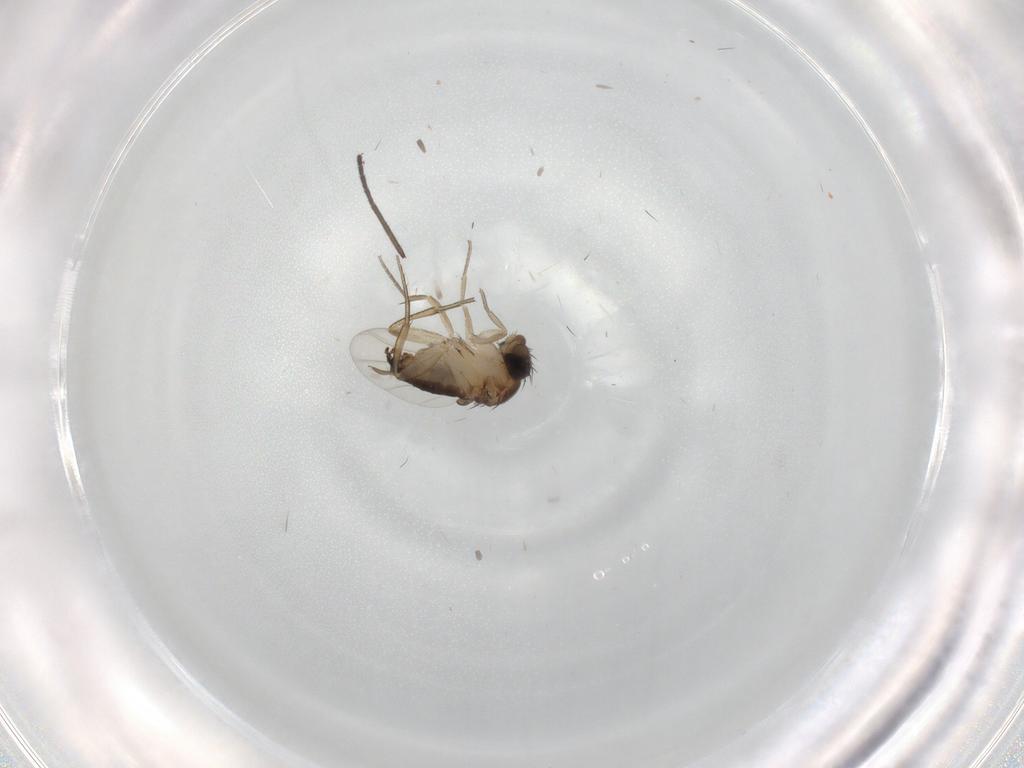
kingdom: Animalia
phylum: Arthropoda
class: Insecta
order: Diptera
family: Sciaridae
